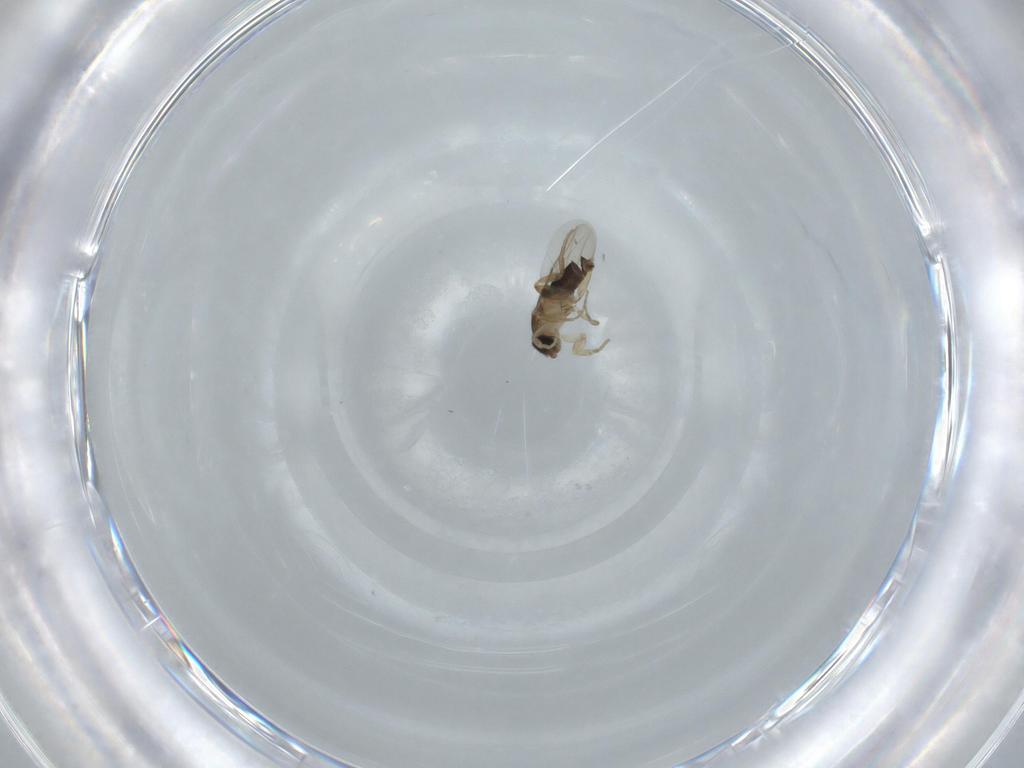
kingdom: Animalia
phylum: Arthropoda
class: Insecta
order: Diptera
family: Phoridae
